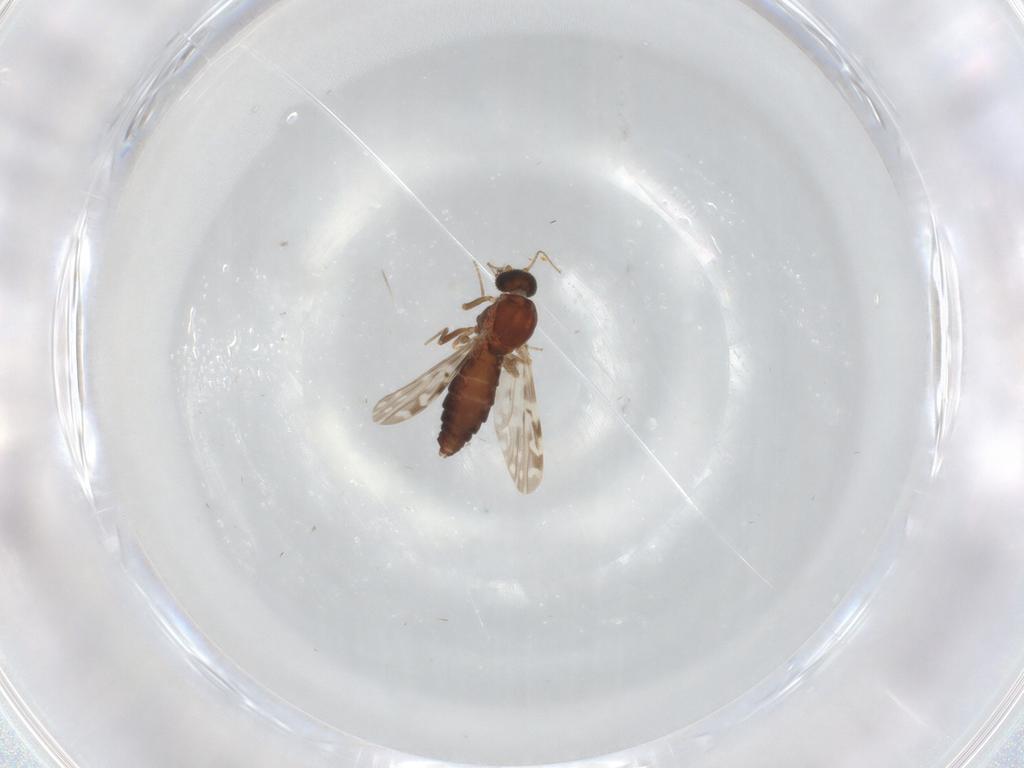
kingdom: Animalia
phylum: Arthropoda
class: Insecta
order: Diptera
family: Ceratopogonidae
